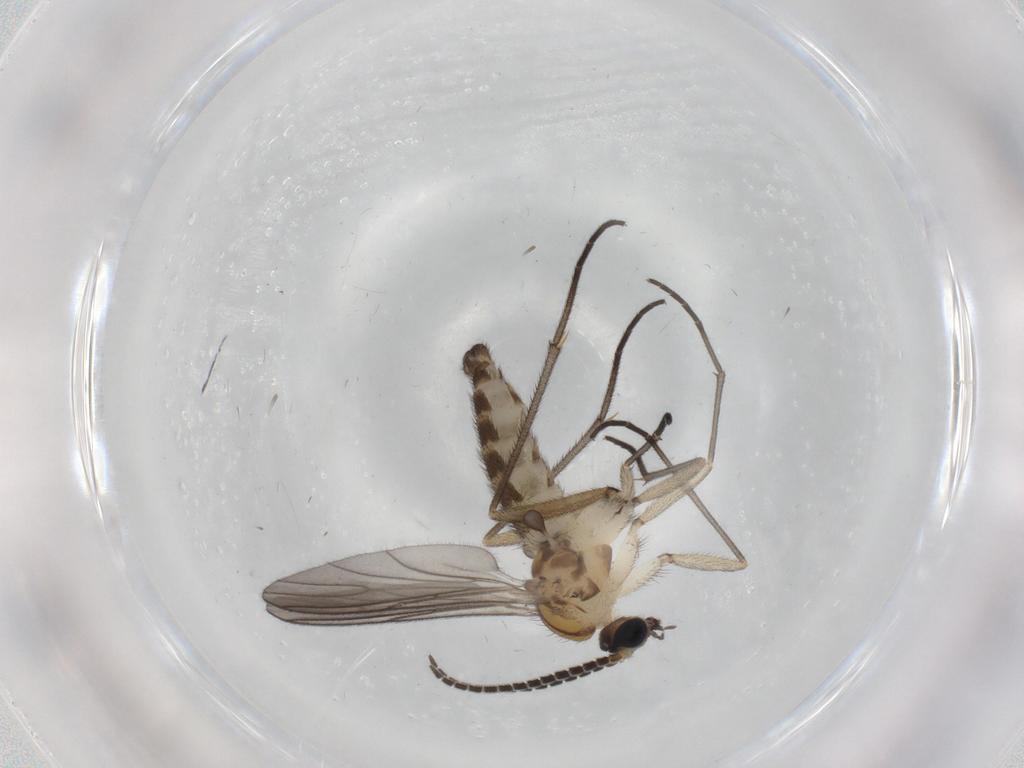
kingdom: Animalia
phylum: Arthropoda
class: Insecta
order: Diptera
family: Sciaridae
